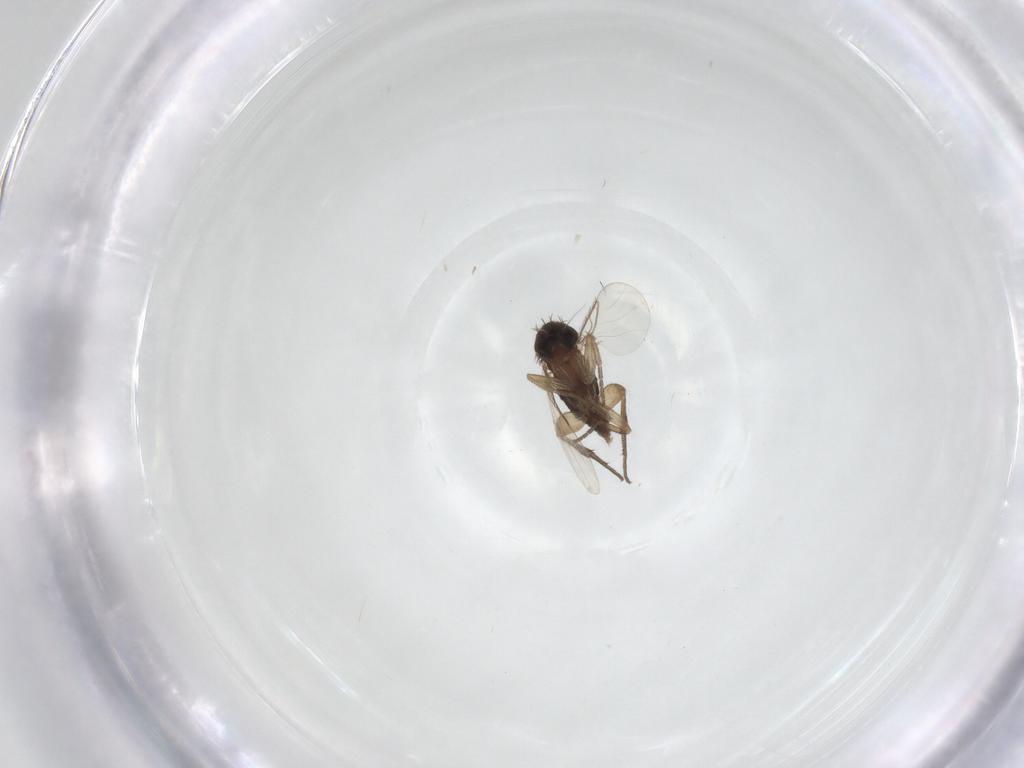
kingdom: Animalia
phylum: Arthropoda
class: Insecta
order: Diptera
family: Phoridae
